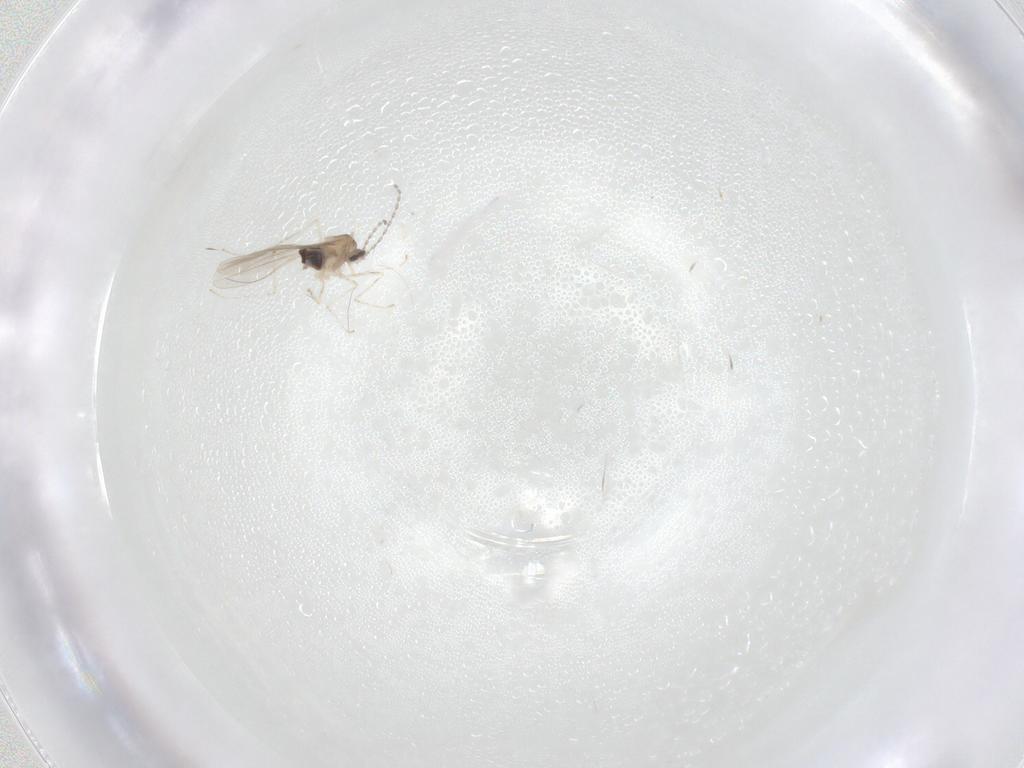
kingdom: Animalia
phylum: Arthropoda
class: Insecta
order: Diptera
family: Cecidomyiidae
